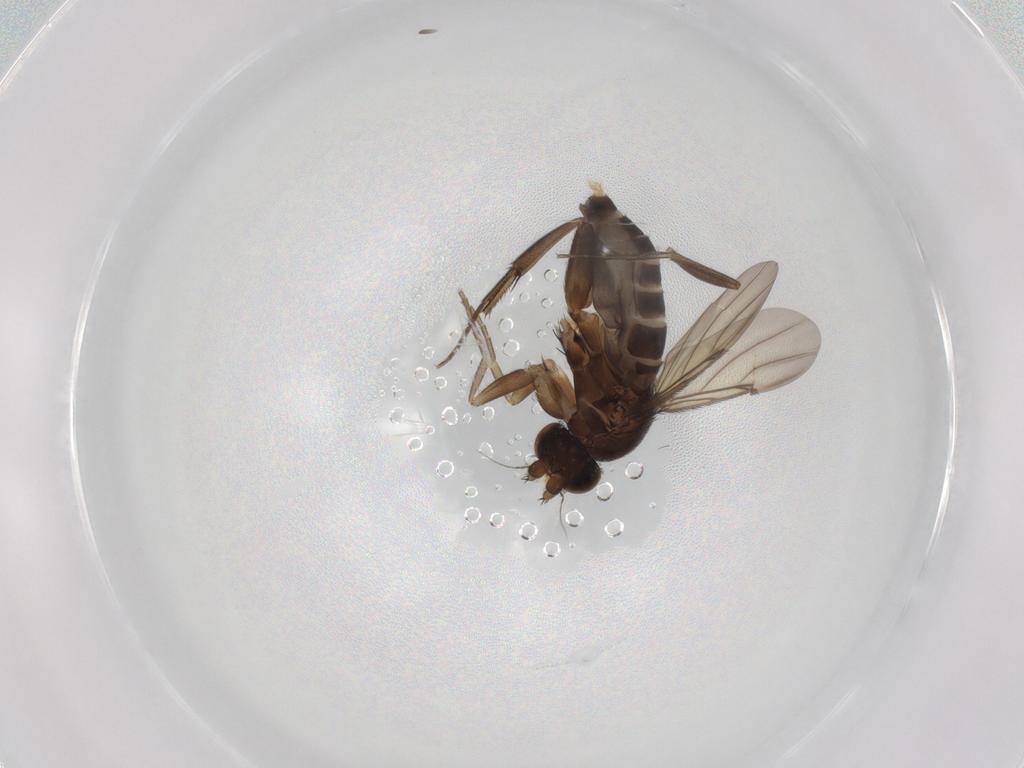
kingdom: Animalia
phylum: Arthropoda
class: Insecta
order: Diptera
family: Phoridae
